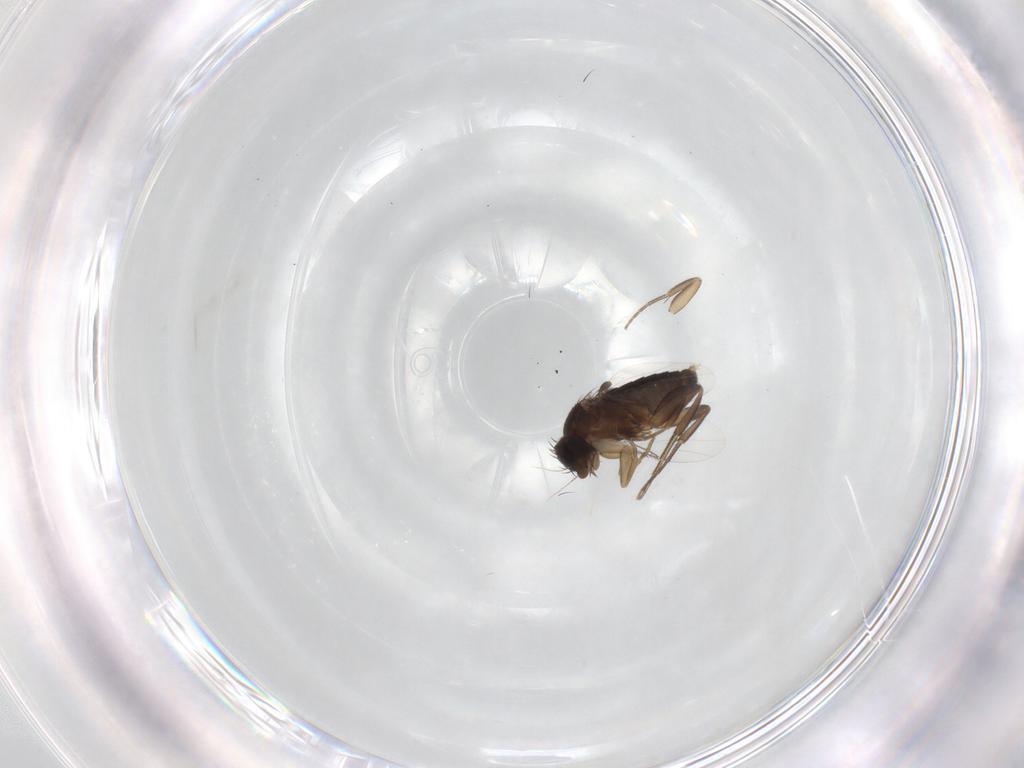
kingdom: Animalia
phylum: Arthropoda
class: Insecta
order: Diptera
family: Phoridae
